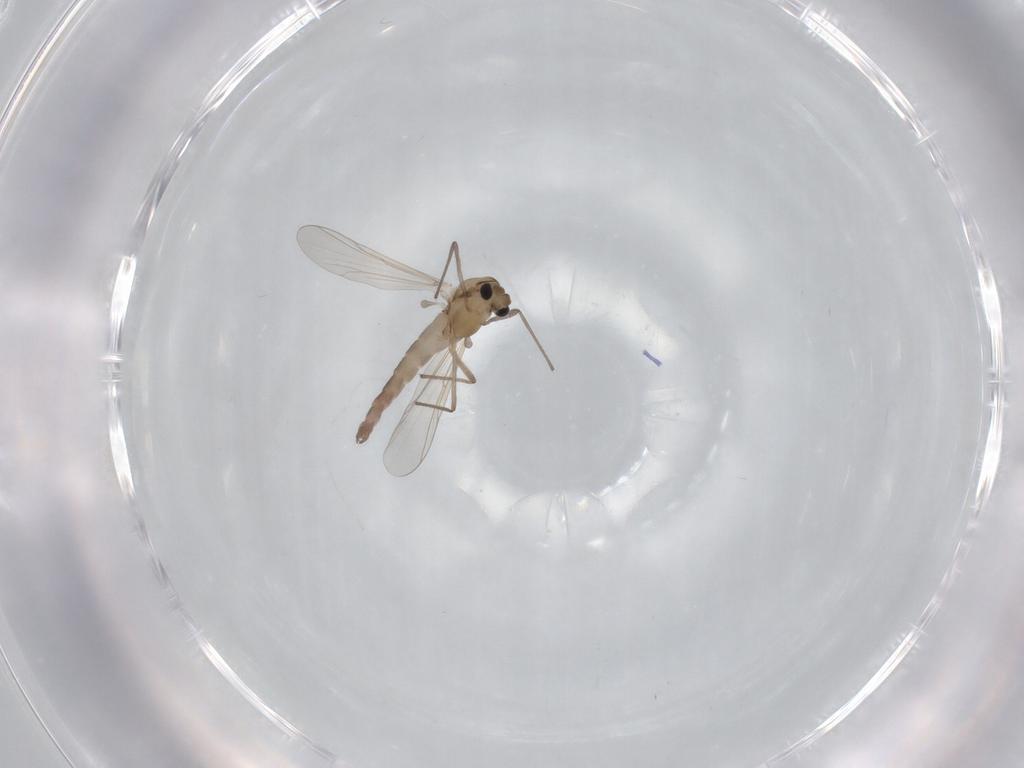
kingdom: Animalia
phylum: Arthropoda
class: Insecta
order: Diptera
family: Chironomidae
